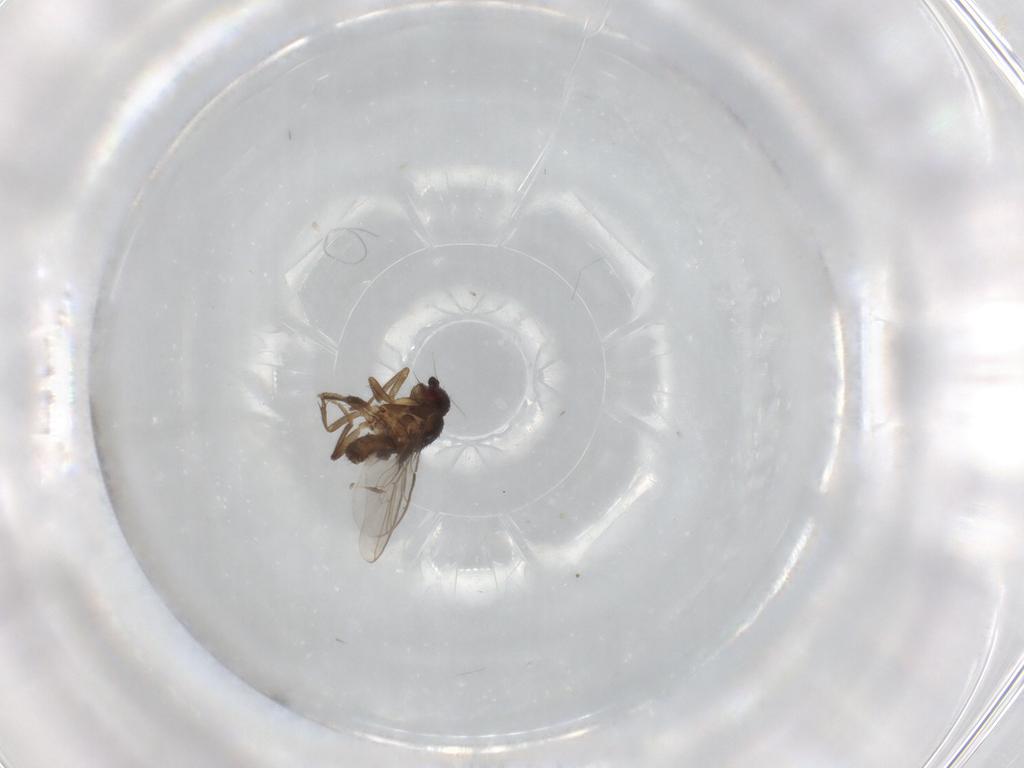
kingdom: Animalia
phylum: Arthropoda
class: Insecta
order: Diptera
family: Sphaeroceridae
